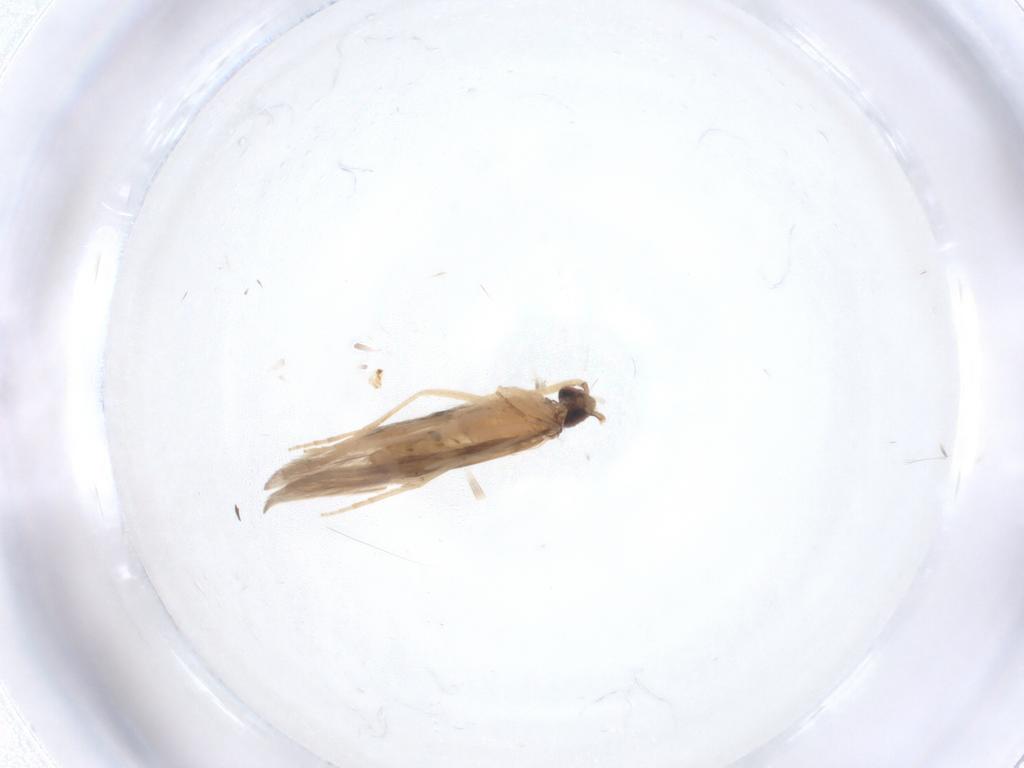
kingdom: Animalia
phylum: Arthropoda
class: Insecta
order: Trichoptera
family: Hydroptilidae
